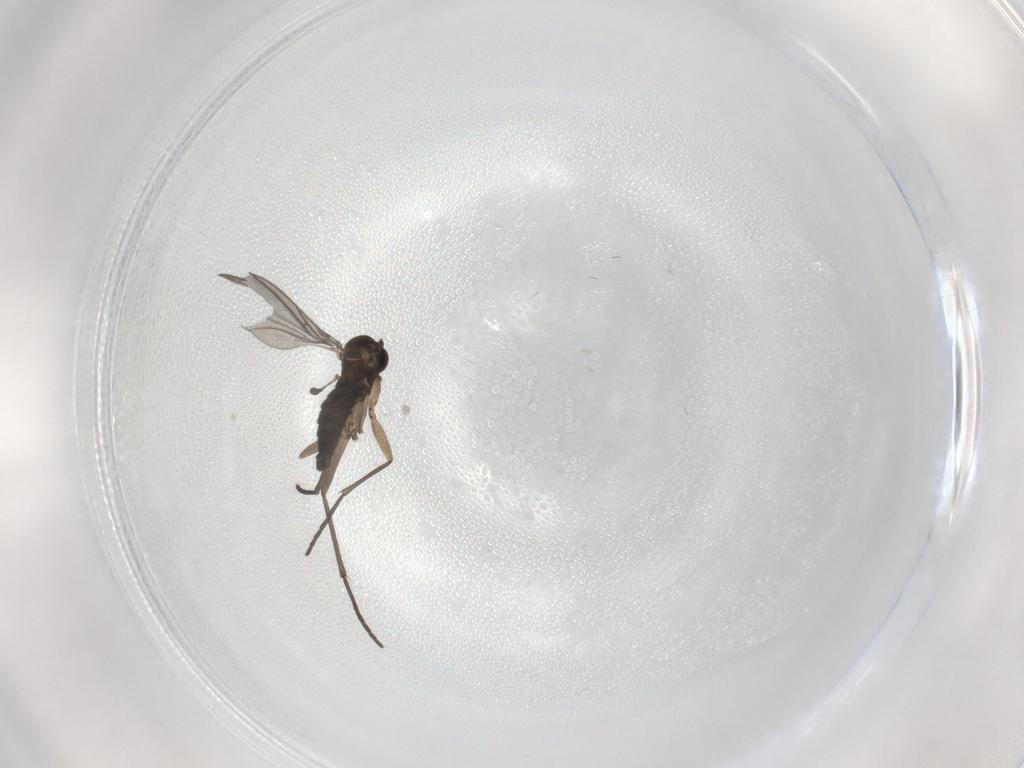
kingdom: Animalia
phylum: Arthropoda
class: Insecta
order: Diptera
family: Sciaridae
